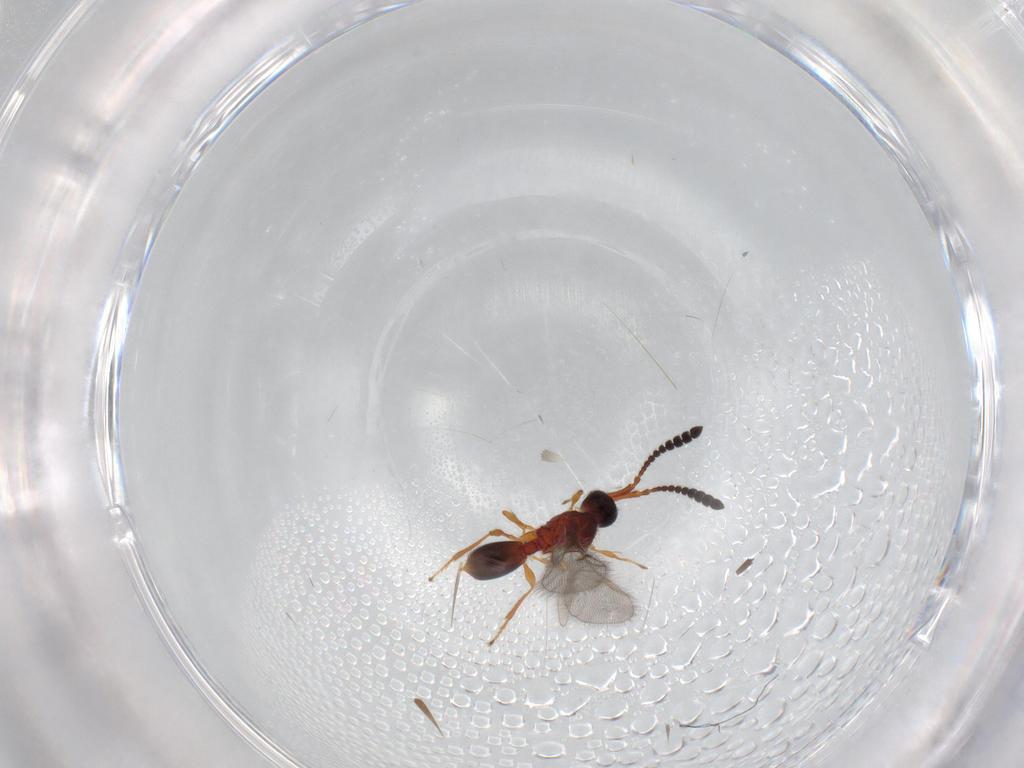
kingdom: Animalia
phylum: Arthropoda
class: Insecta
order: Hymenoptera
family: Diapriidae
